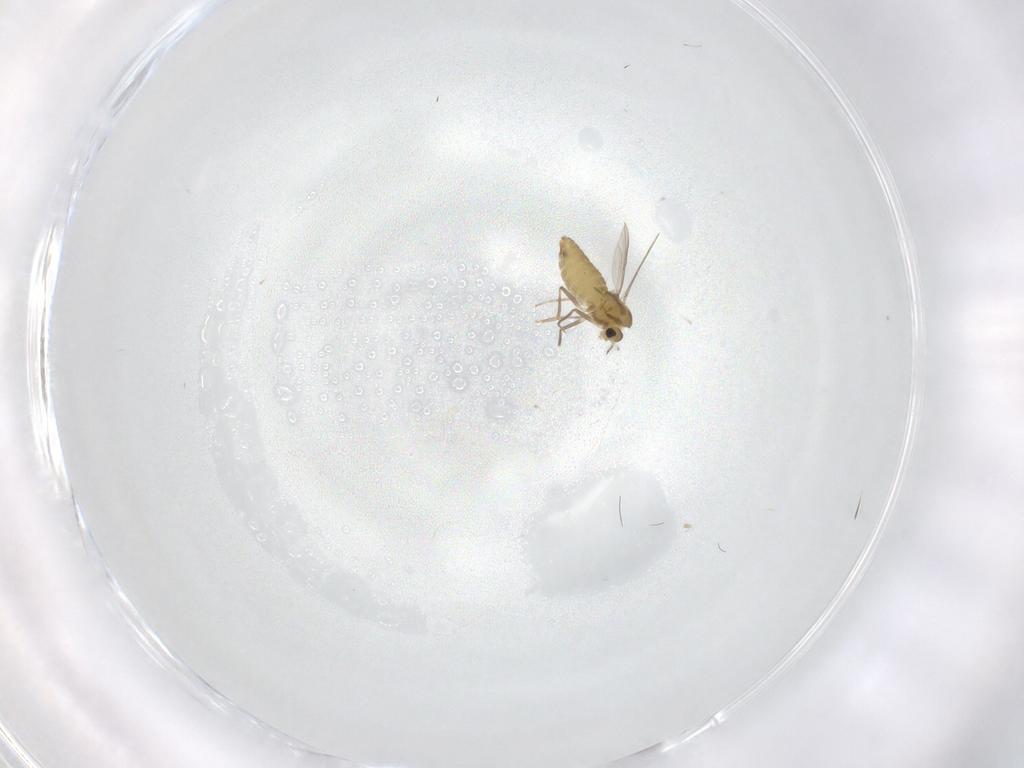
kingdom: Animalia
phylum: Arthropoda
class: Insecta
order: Diptera
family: Chironomidae
